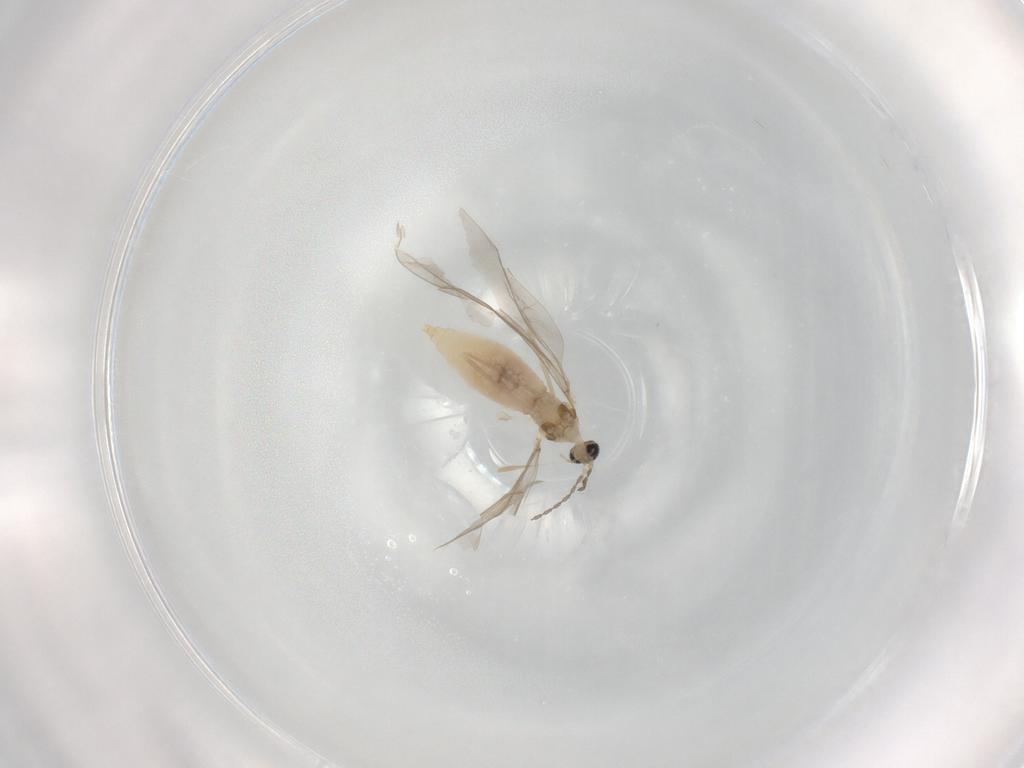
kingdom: Animalia
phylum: Arthropoda
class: Insecta
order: Diptera
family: Cecidomyiidae
